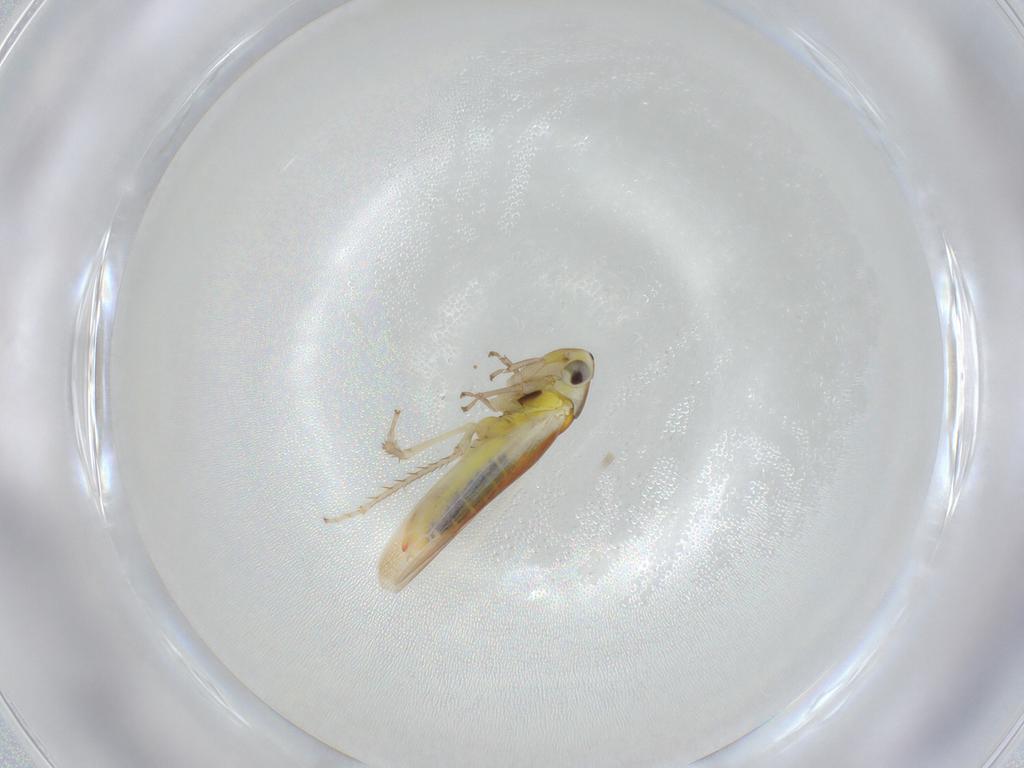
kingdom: Animalia
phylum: Arthropoda
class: Insecta
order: Hemiptera
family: Cicadellidae
